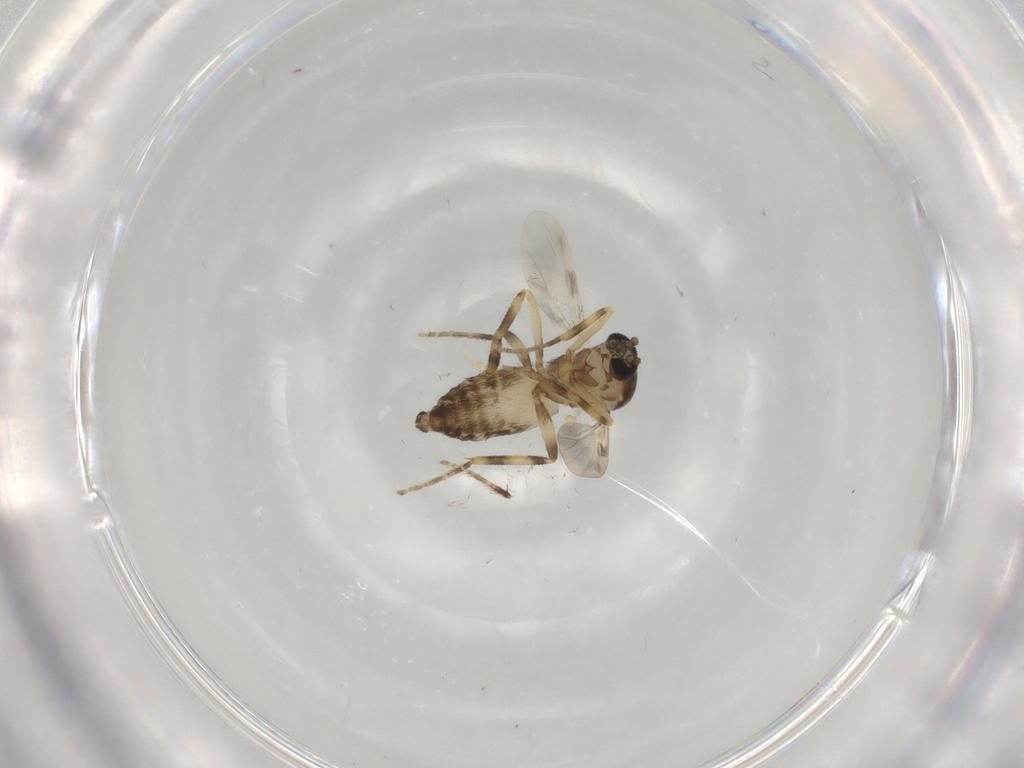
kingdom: Animalia
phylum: Arthropoda
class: Insecta
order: Diptera
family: Ceratopogonidae
